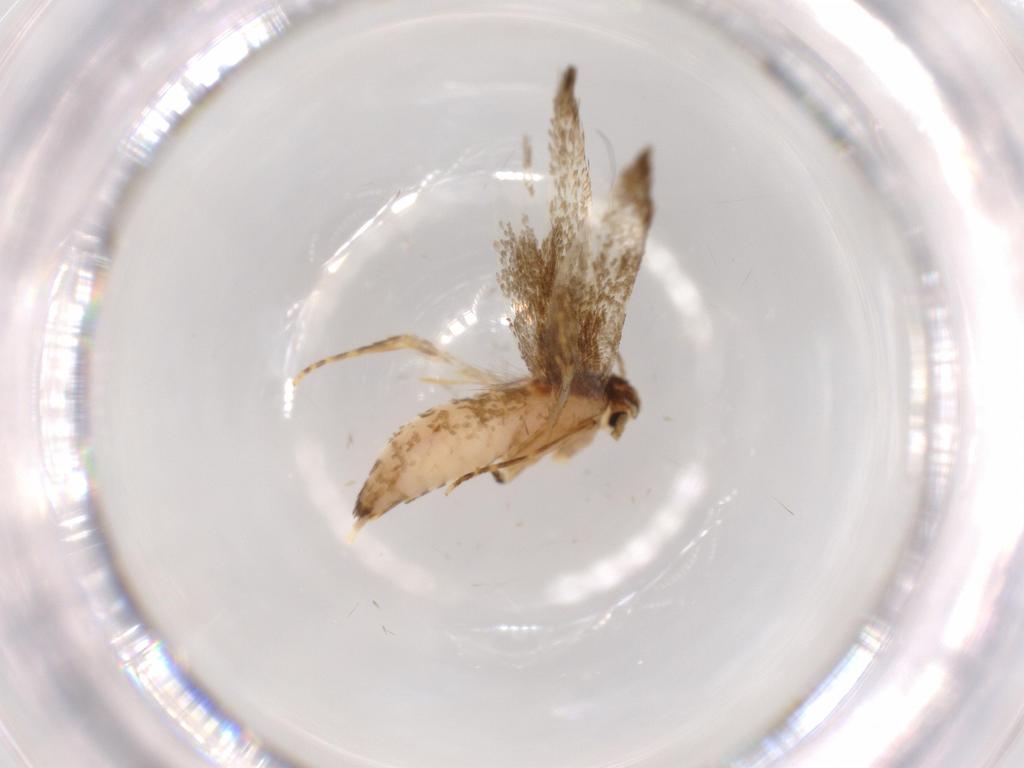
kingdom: Animalia
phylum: Arthropoda
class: Insecta
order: Lepidoptera
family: Tineidae
